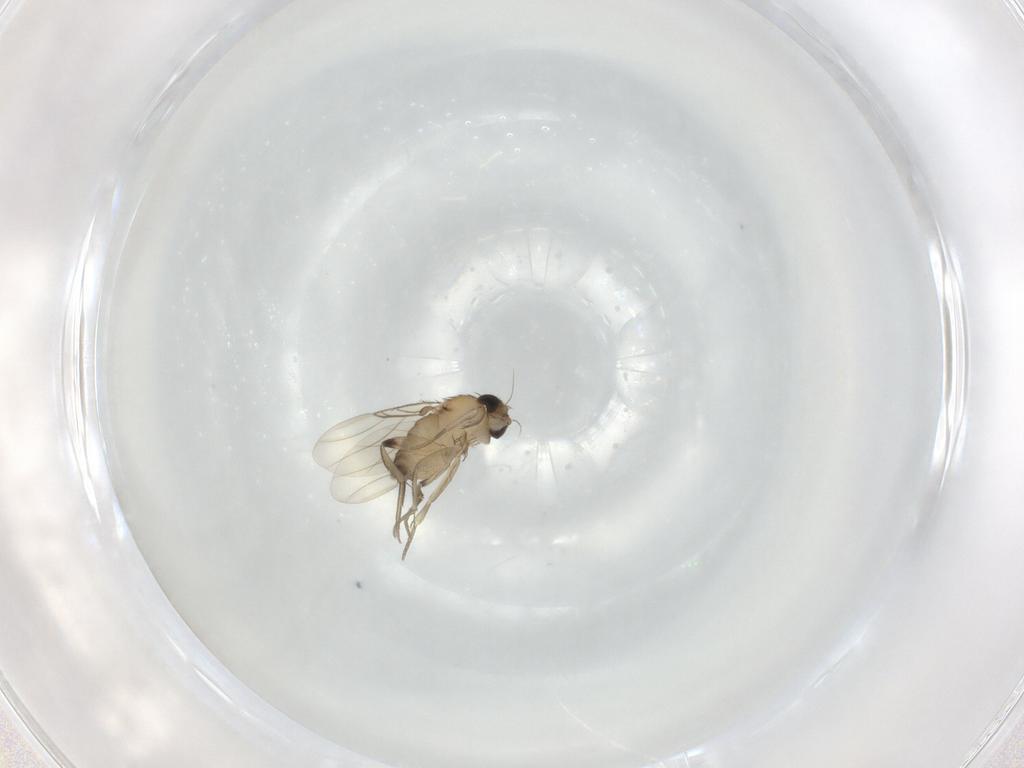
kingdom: Animalia
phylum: Arthropoda
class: Insecta
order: Diptera
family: Phoridae
